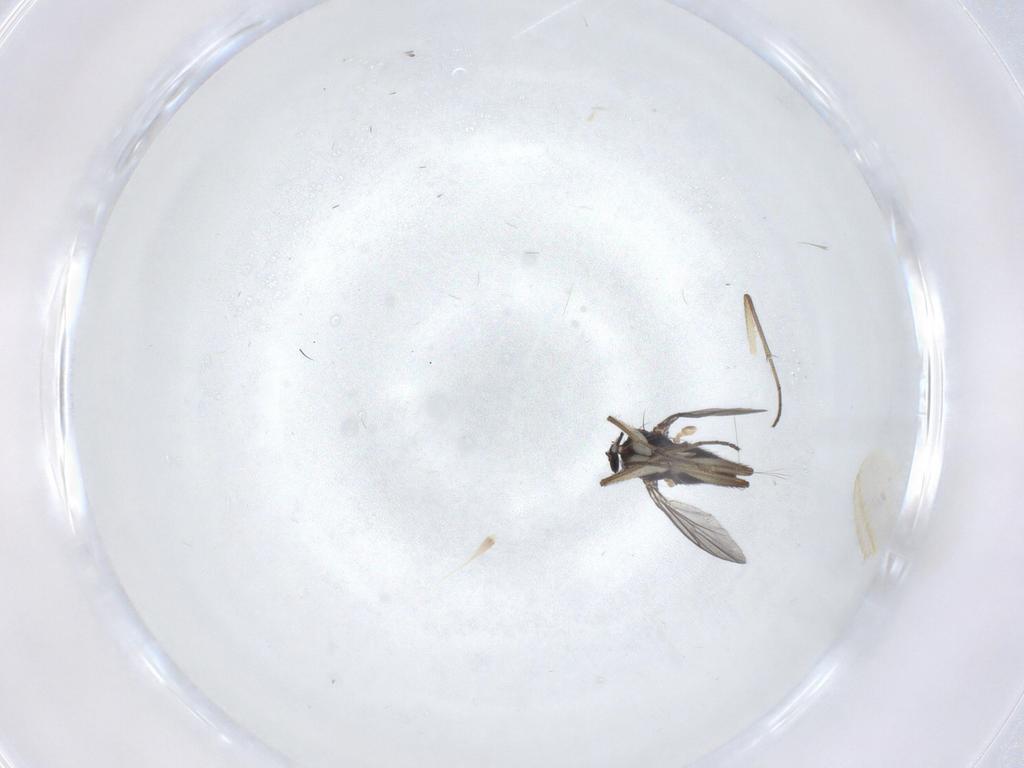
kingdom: Animalia
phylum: Arthropoda
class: Insecta
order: Diptera
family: Dolichopodidae
